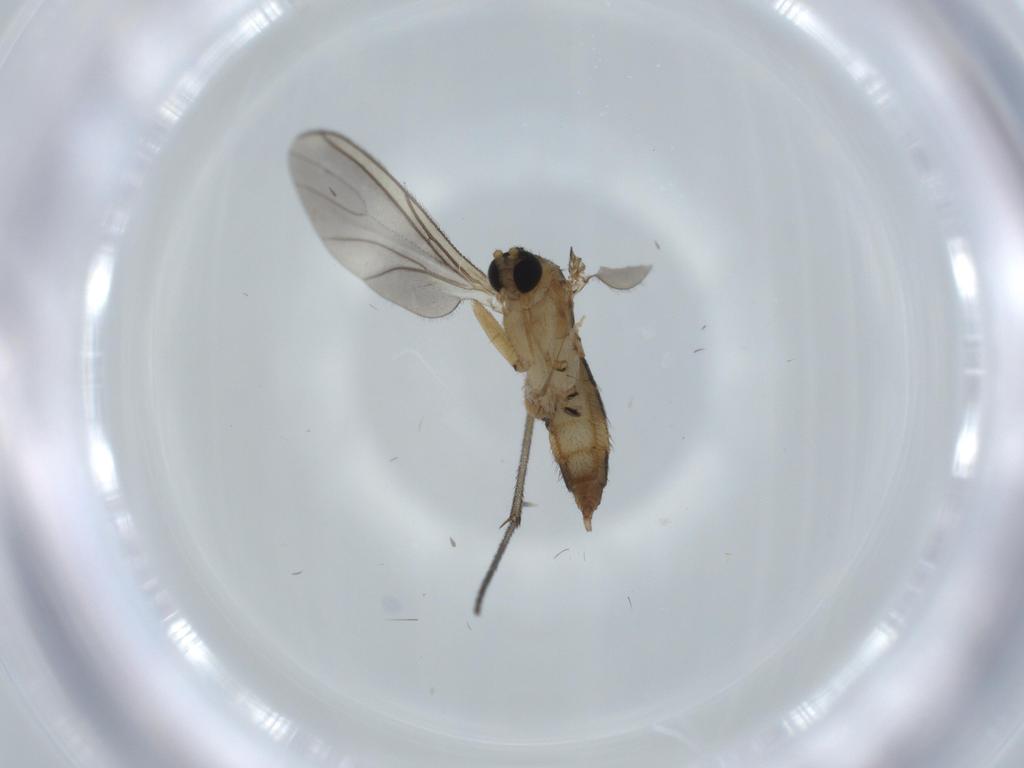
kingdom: Animalia
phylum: Arthropoda
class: Insecta
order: Diptera
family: Sciaridae
